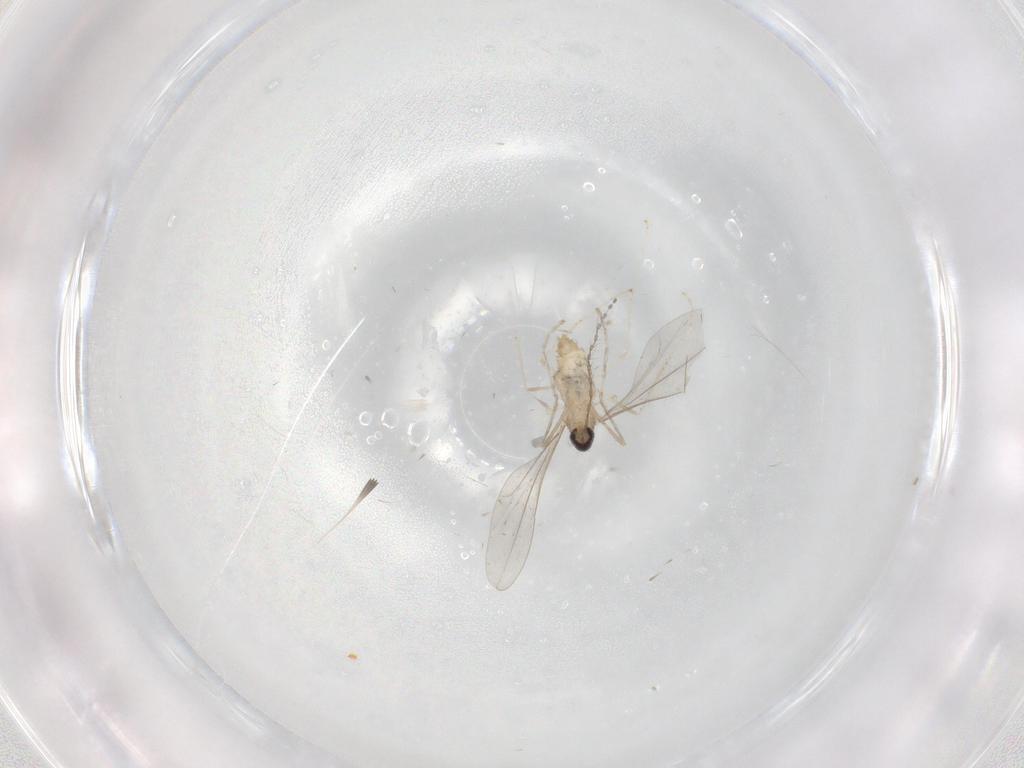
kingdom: Animalia
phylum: Arthropoda
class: Insecta
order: Diptera
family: Cecidomyiidae
